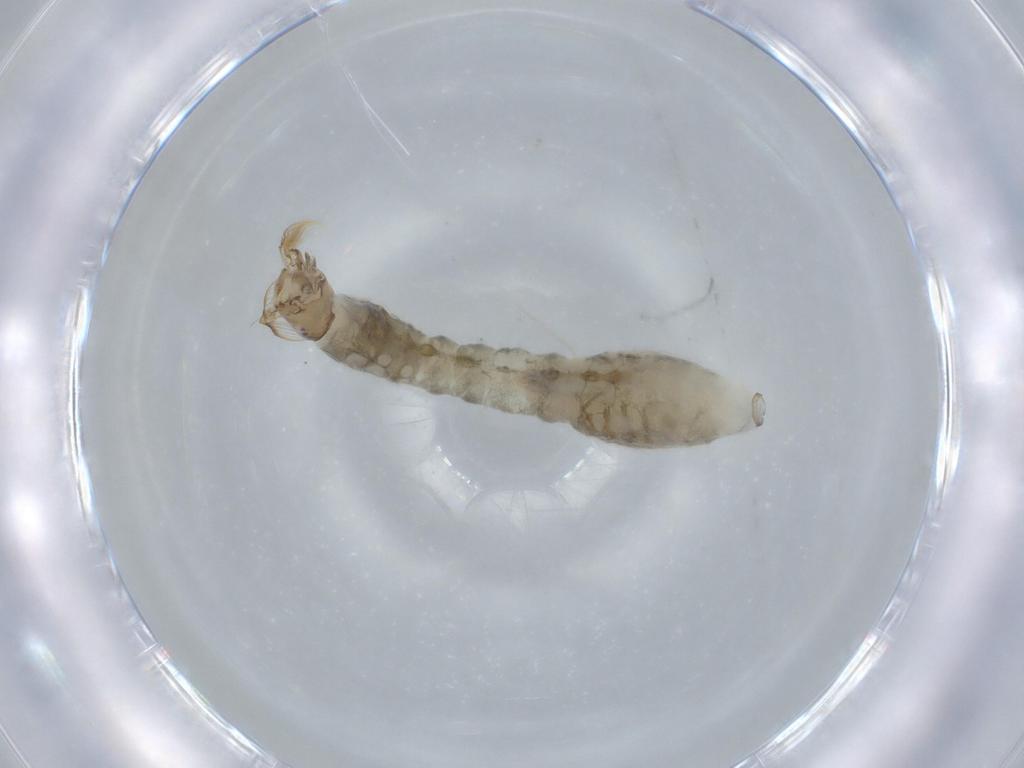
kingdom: Animalia
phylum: Arthropoda
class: Insecta
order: Diptera
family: Simuliidae
